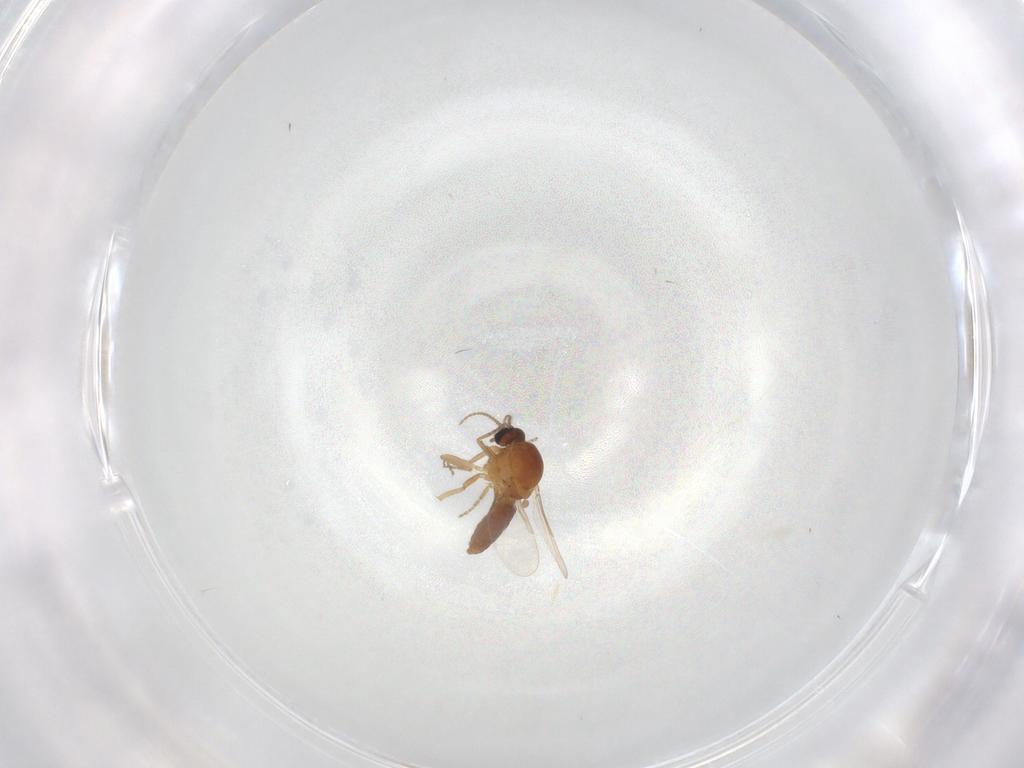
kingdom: Animalia
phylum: Arthropoda
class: Insecta
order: Diptera
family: Ceratopogonidae
